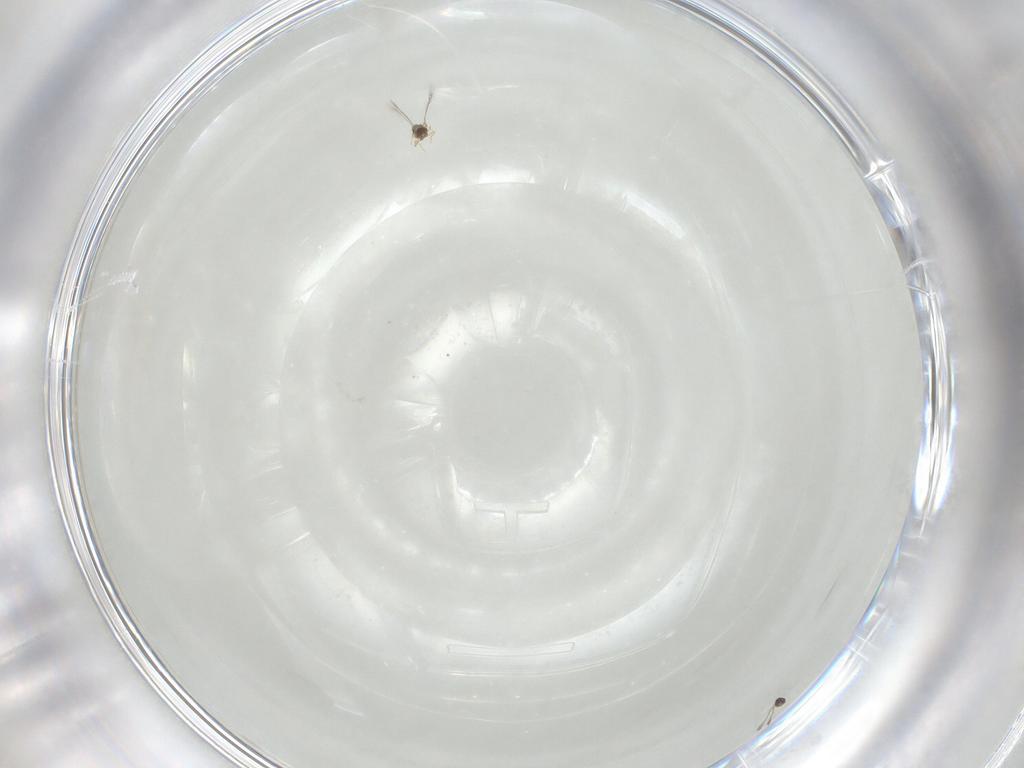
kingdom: Animalia
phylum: Arthropoda
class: Insecta
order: Hymenoptera
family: Mymaridae
